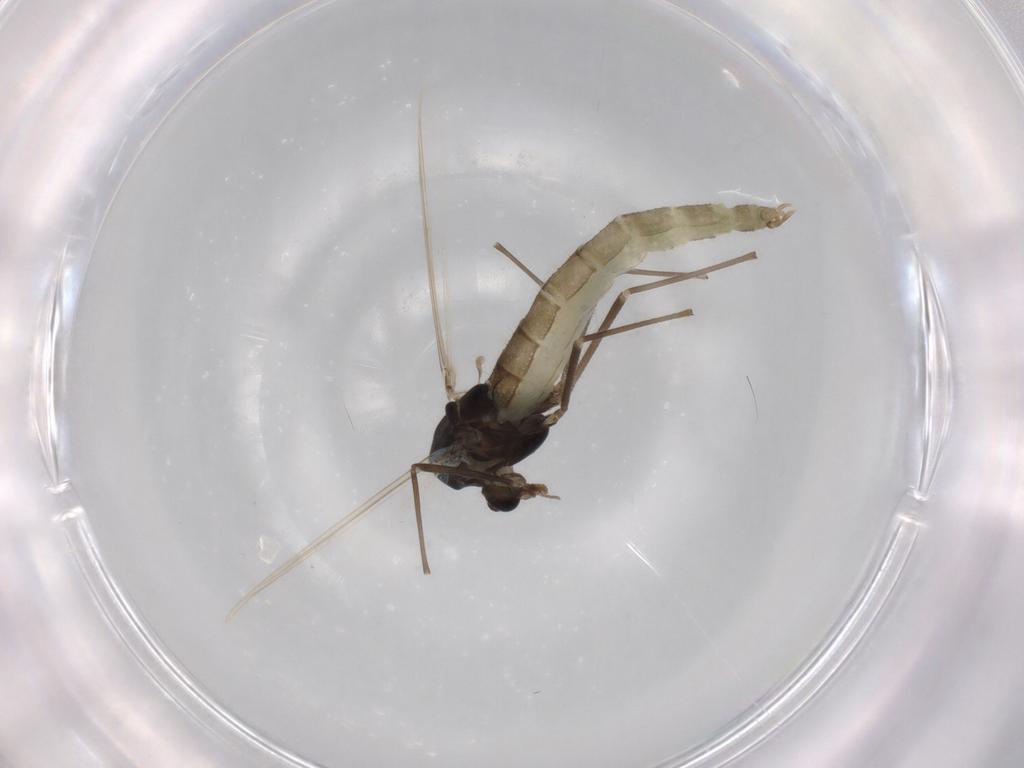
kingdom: Animalia
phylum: Arthropoda
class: Insecta
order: Diptera
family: Chironomidae
